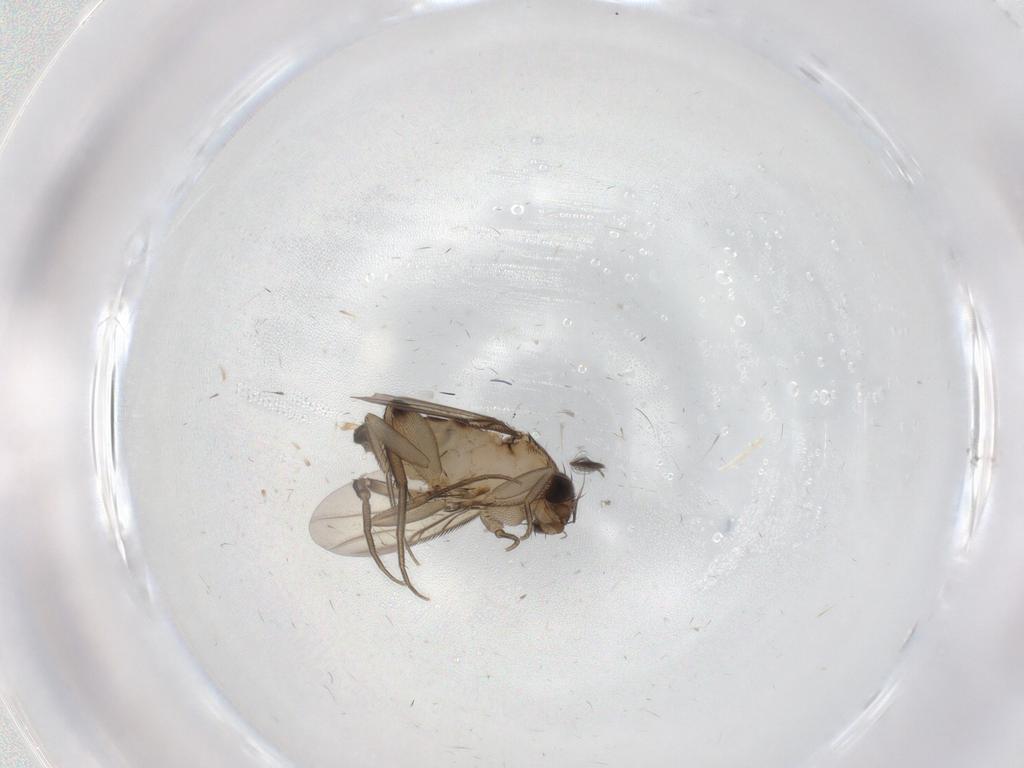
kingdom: Animalia
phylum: Arthropoda
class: Insecta
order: Diptera
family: Phoridae
